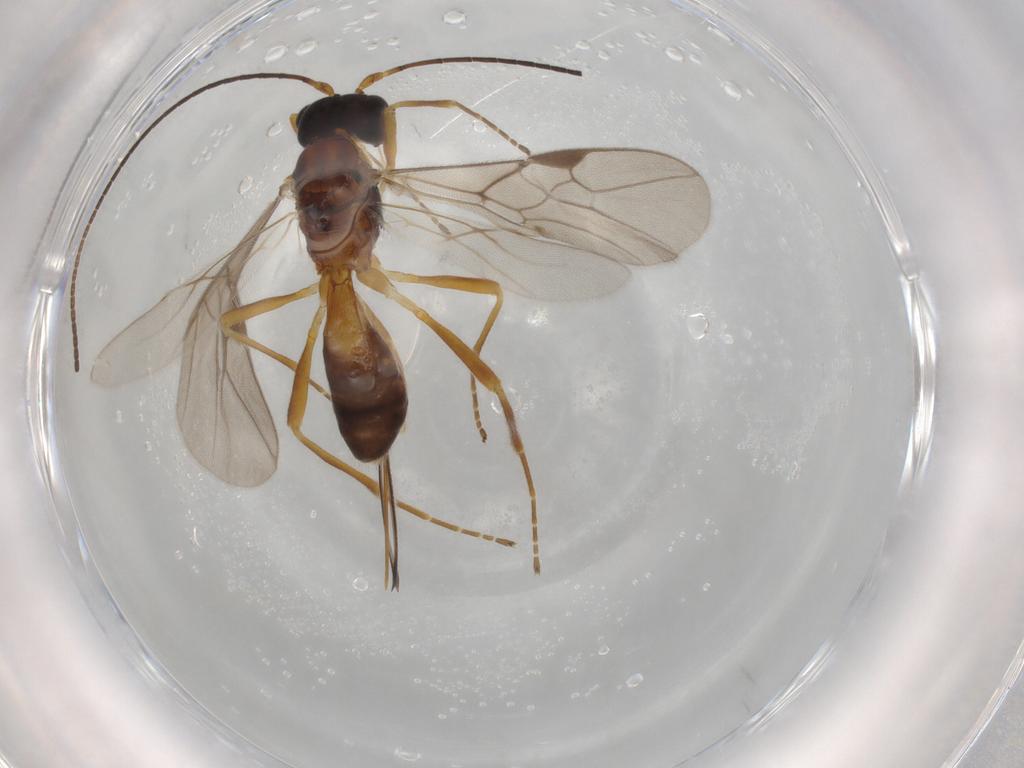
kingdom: Animalia
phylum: Arthropoda
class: Insecta
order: Hymenoptera
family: Braconidae
